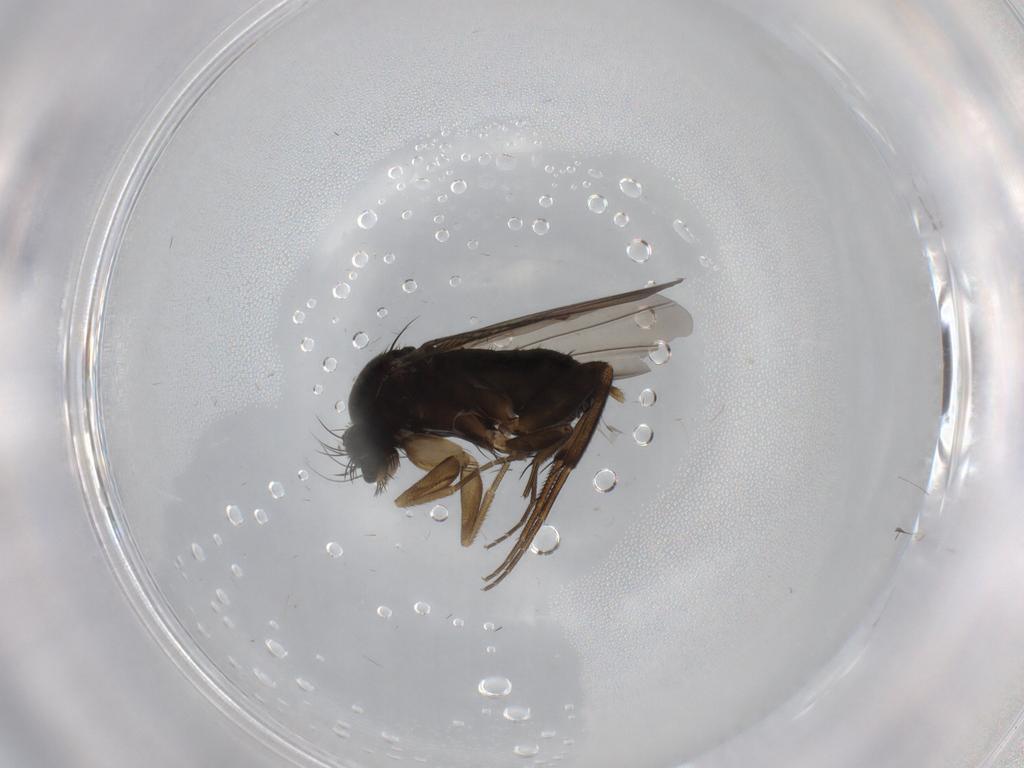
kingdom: Animalia
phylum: Arthropoda
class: Insecta
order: Diptera
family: Phoridae
